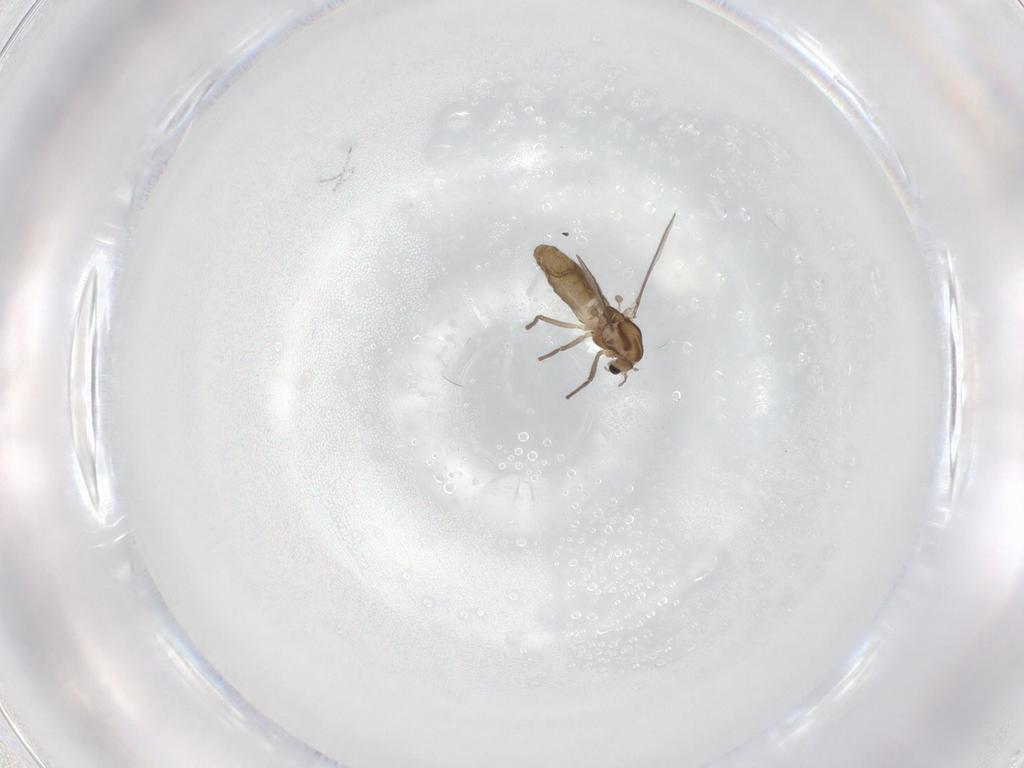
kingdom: Animalia
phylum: Arthropoda
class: Insecta
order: Diptera
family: Chironomidae
